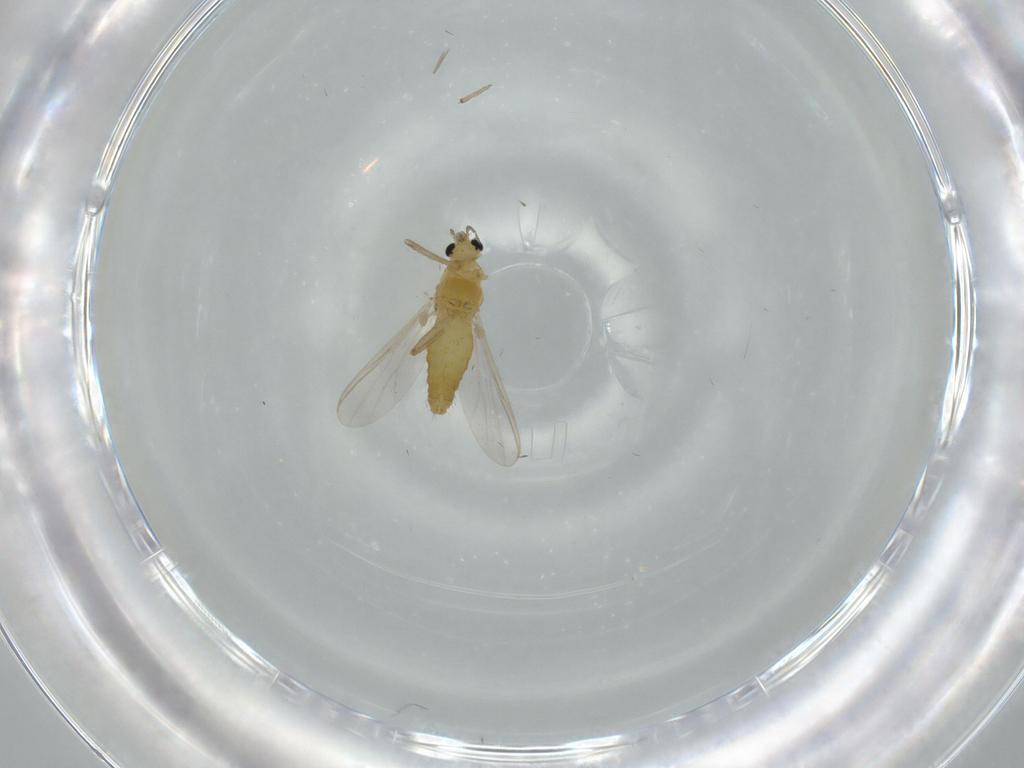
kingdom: Animalia
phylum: Arthropoda
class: Insecta
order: Diptera
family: Chironomidae
